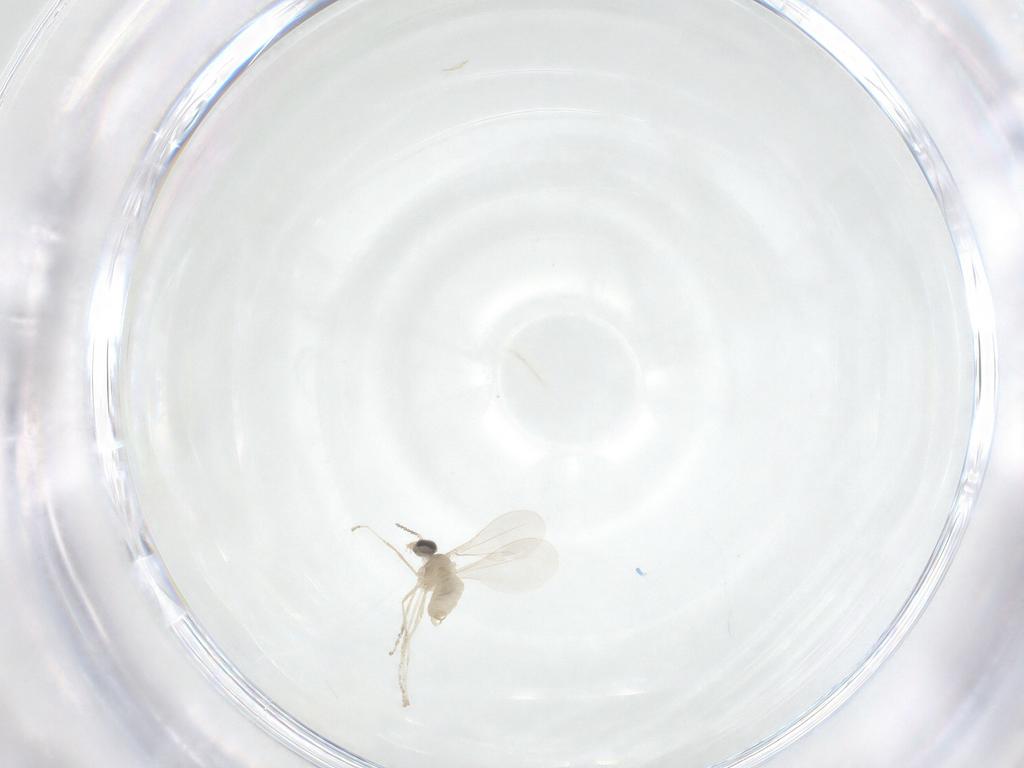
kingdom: Animalia
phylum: Arthropoda
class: Insecta
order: Diptera
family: Cecidomyiidae
